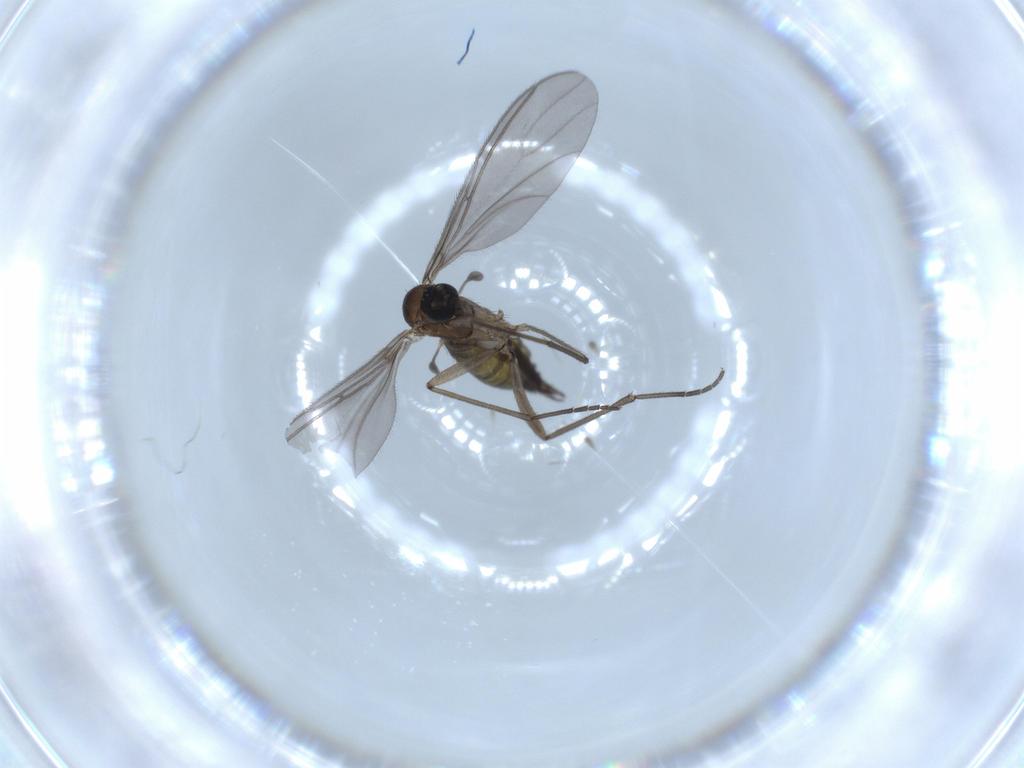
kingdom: Animalia
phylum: Arthropoda
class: Insecta
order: Diptera
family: Sciaridae
